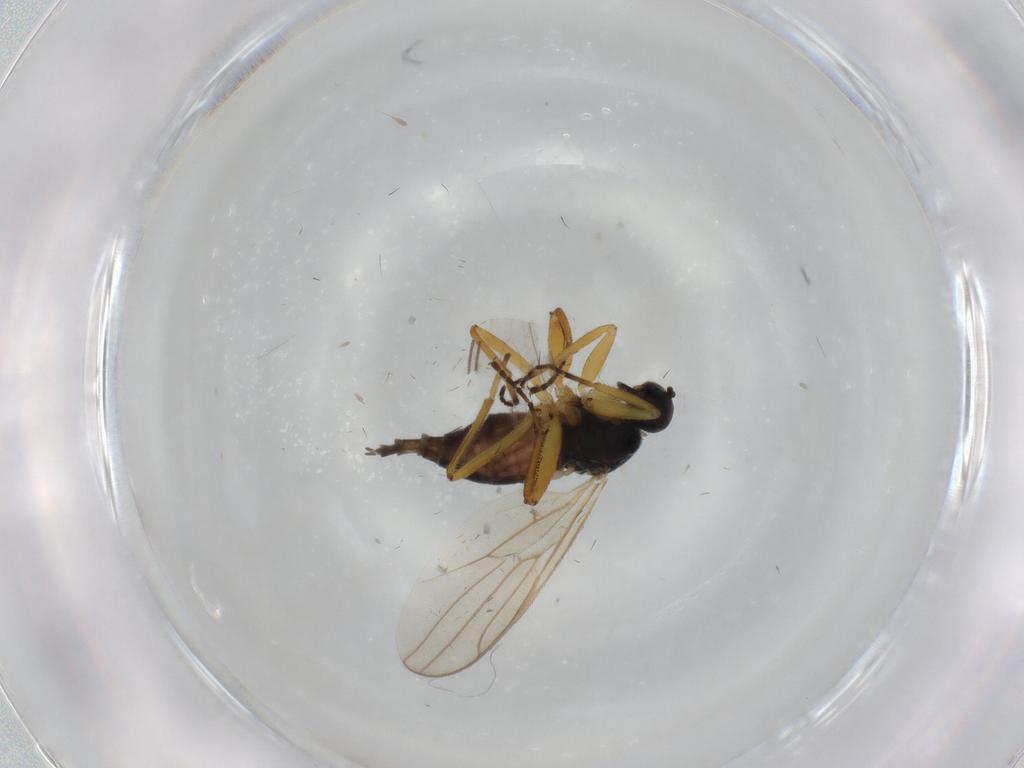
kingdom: Animalia
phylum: Arthropoda
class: Insecta
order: Diptera
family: Hybotidae
